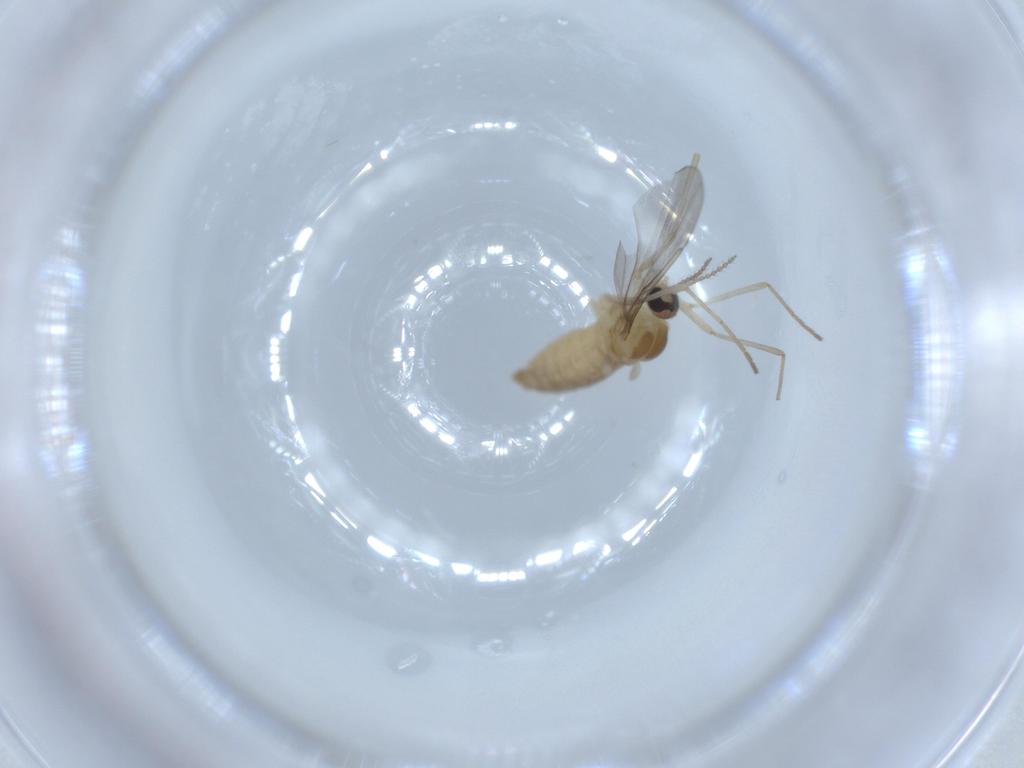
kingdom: Animalia
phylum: Arthropoda
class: Insecta
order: Diptera
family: Cecidomyiidae
